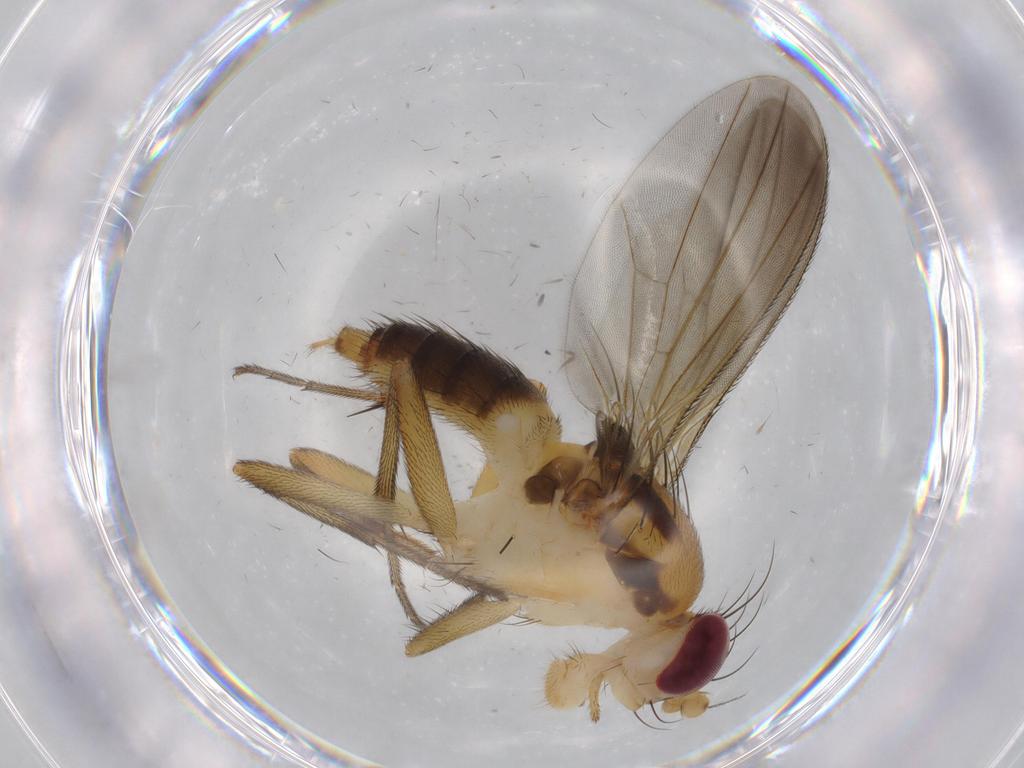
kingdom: Animalia
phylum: Arthropoda
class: Insecta
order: Diptera
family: Clusiidae
